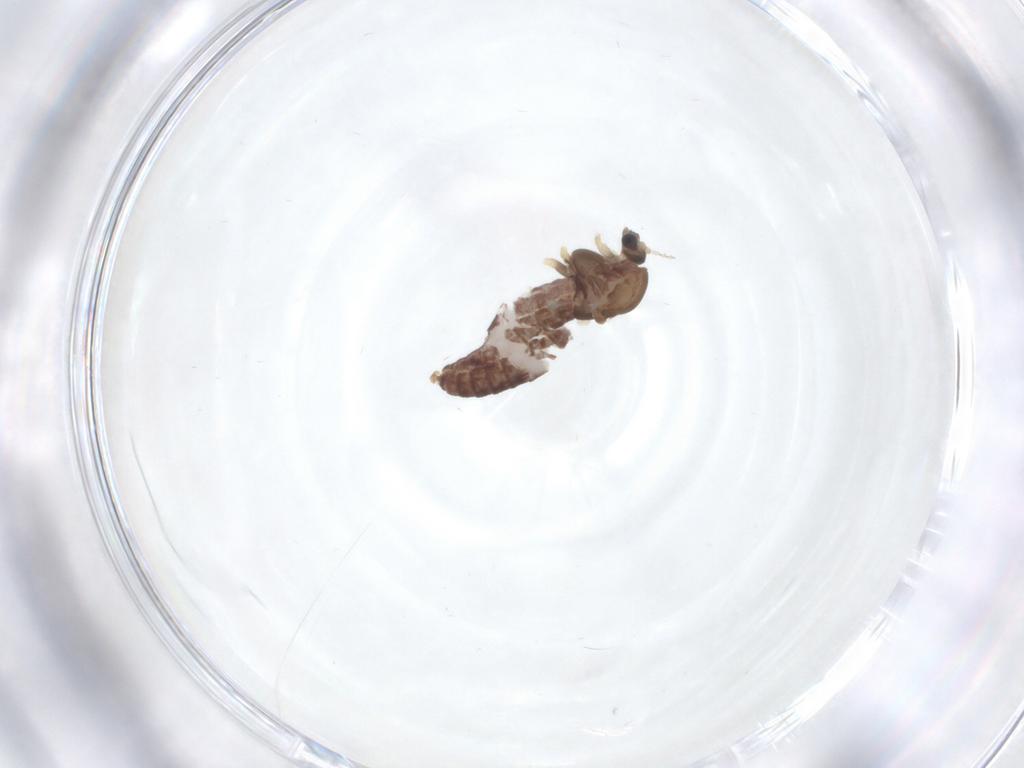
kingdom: Animalia
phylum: Arthropoda
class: Insecta
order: Diptera
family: Chironomidae
